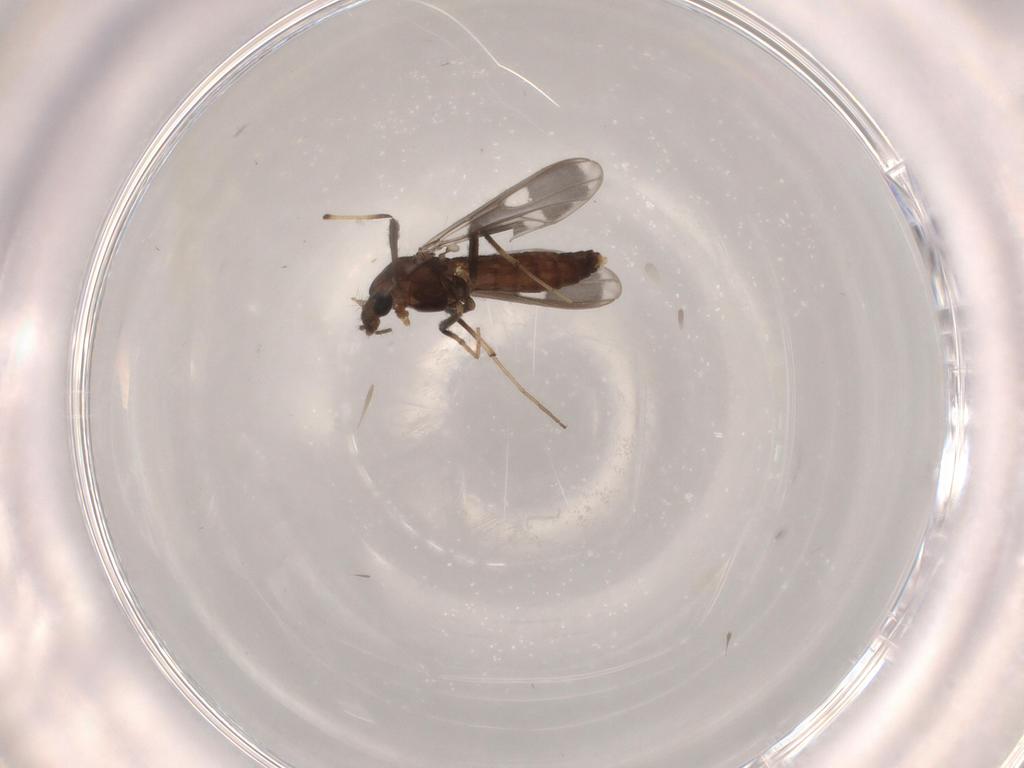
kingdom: Animalia
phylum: Arthropoda
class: Insecta
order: Diptera
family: Chironomidae
